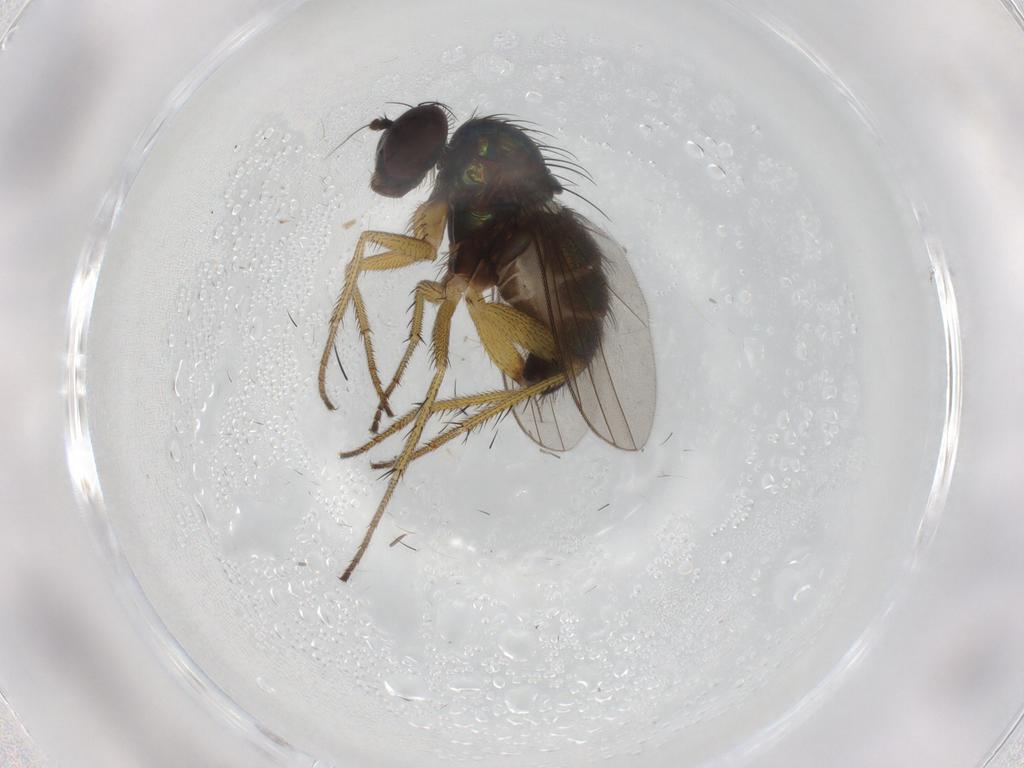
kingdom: Animalia
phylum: Arthropoda
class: Insecta
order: Diptera
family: Dolichopodidae
